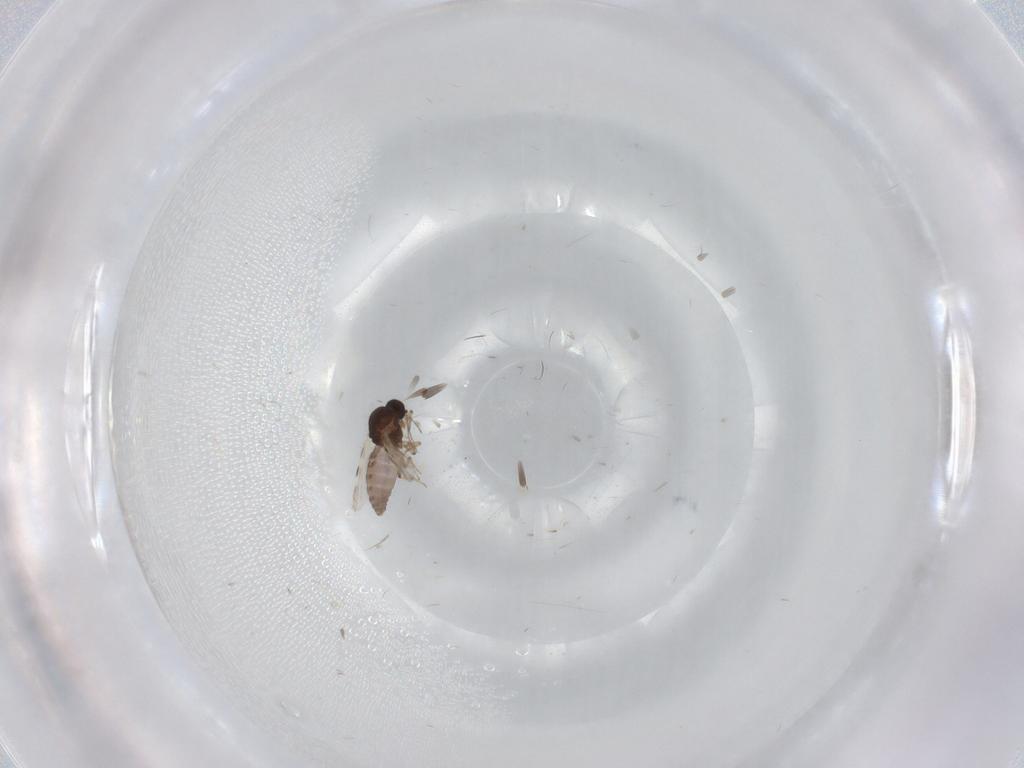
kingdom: Animalia
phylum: Arthropoda
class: Insecta
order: Diptera
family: Phoridae
